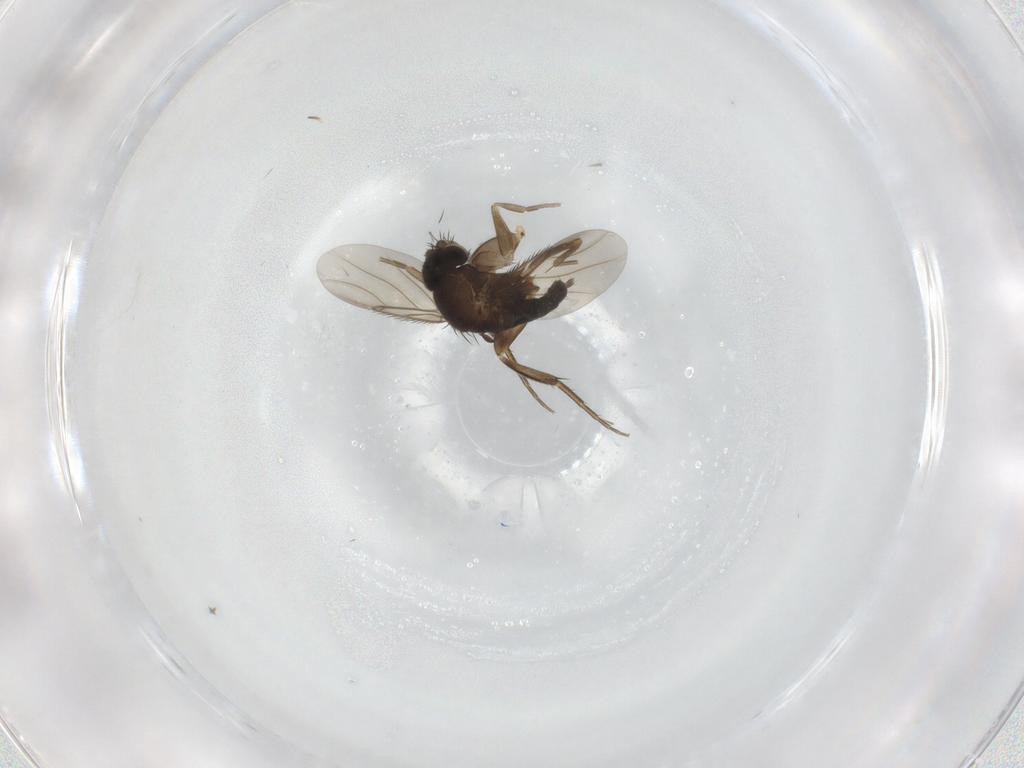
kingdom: Animalia
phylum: Arthropoda
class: Insecta
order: Diptera
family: Phoridae
